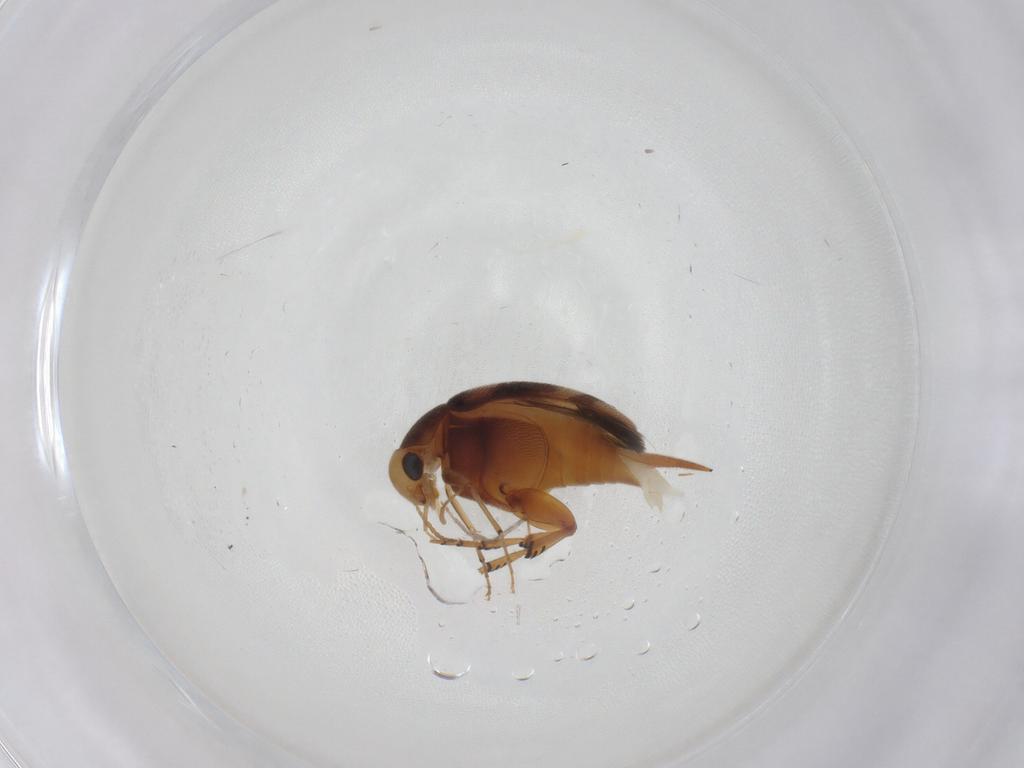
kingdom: Animalia
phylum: Arthropoda
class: Insecta
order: Coleoptera
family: Mordellidae
